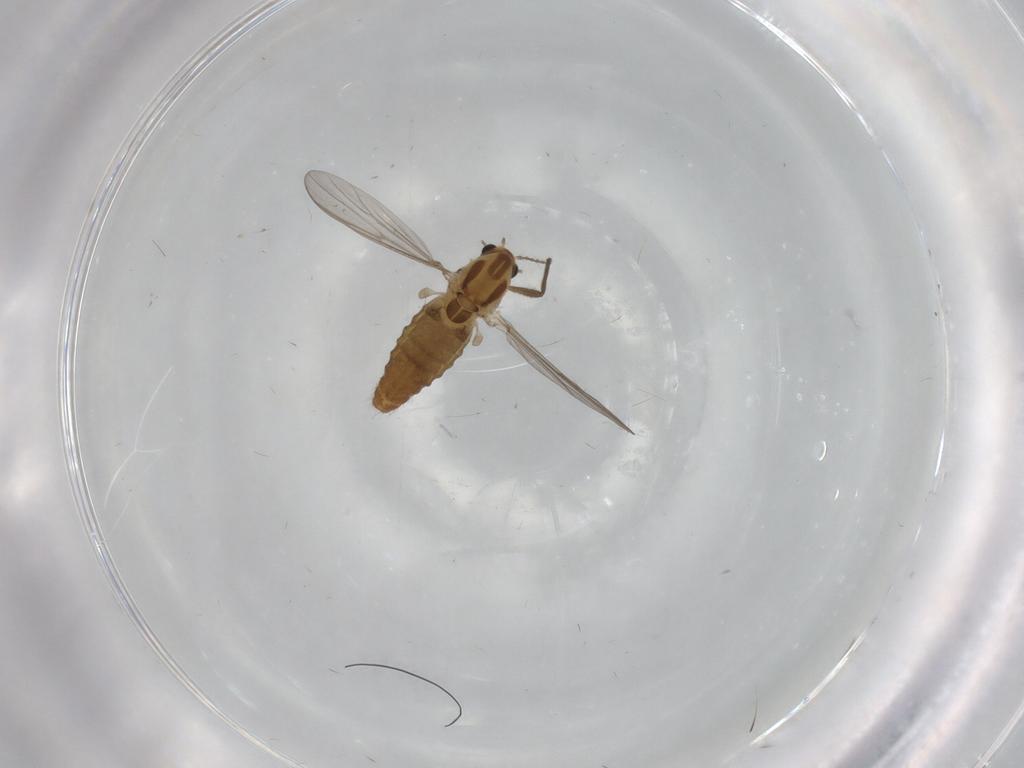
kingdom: Animalia
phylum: Arthropoda
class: Insecta
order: Diptera
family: Chironomidae
